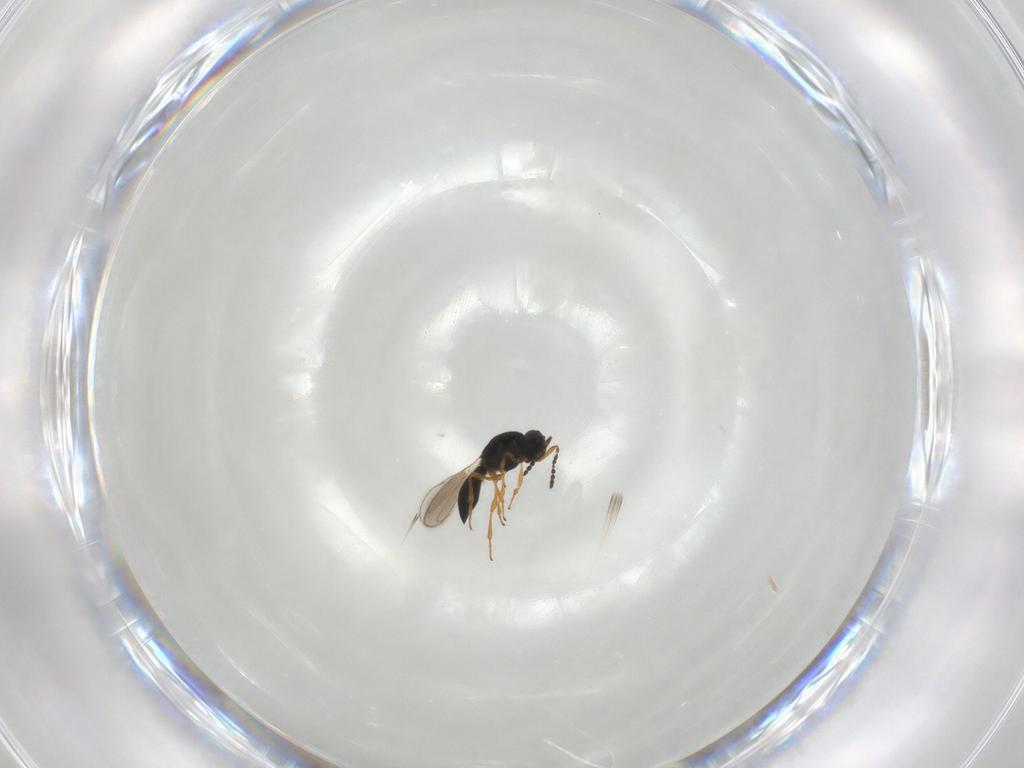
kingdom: Animalia
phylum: Arthropoda
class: Insecta
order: Hymenoptera
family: Platygastridae
